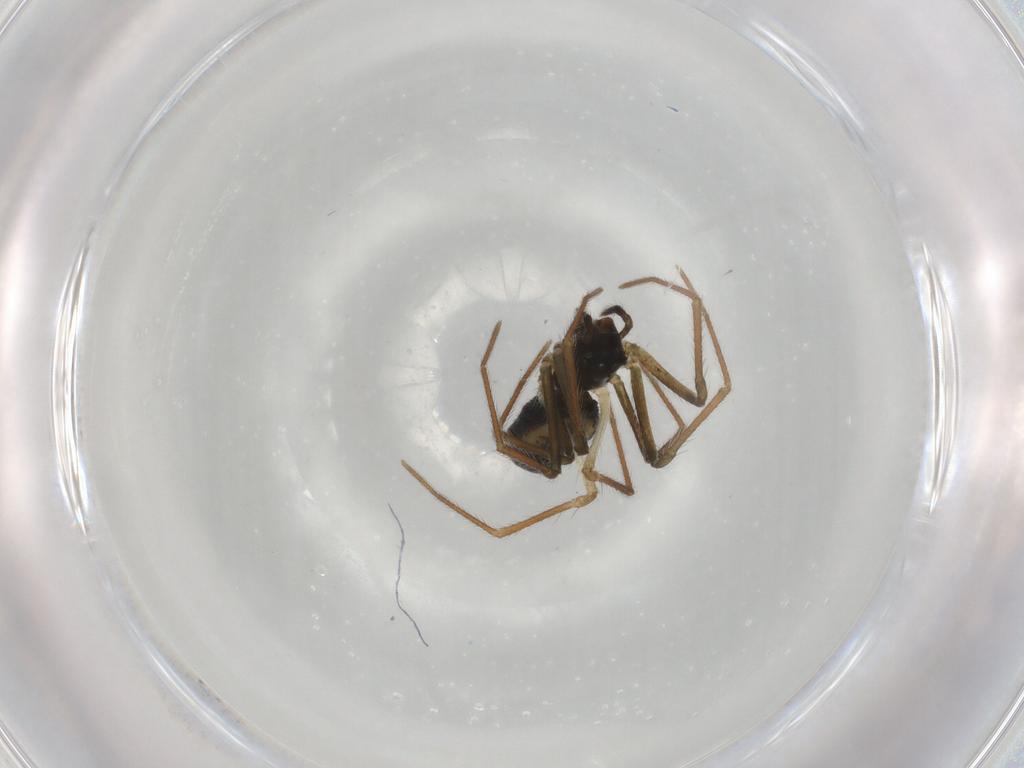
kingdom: Animalia
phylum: Arthropoda
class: Arachnida
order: Araneae
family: Linyphiidae
